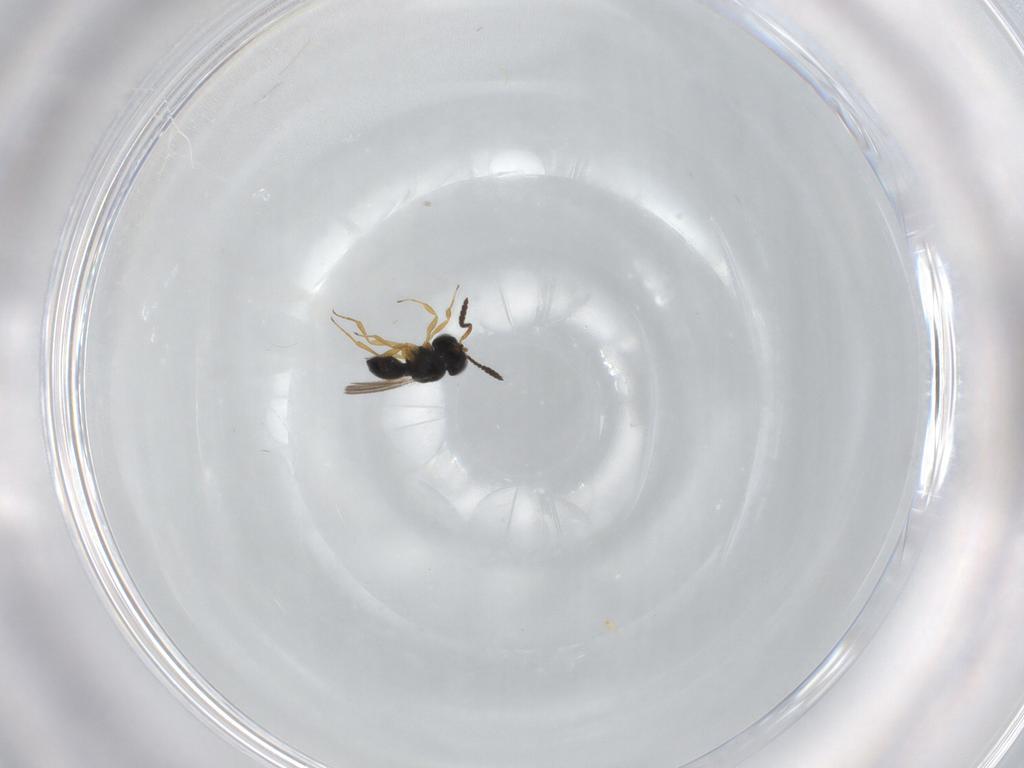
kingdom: Animalia
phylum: Arthropoda
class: Insecta
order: Hymenoptera
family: Scelionidae
